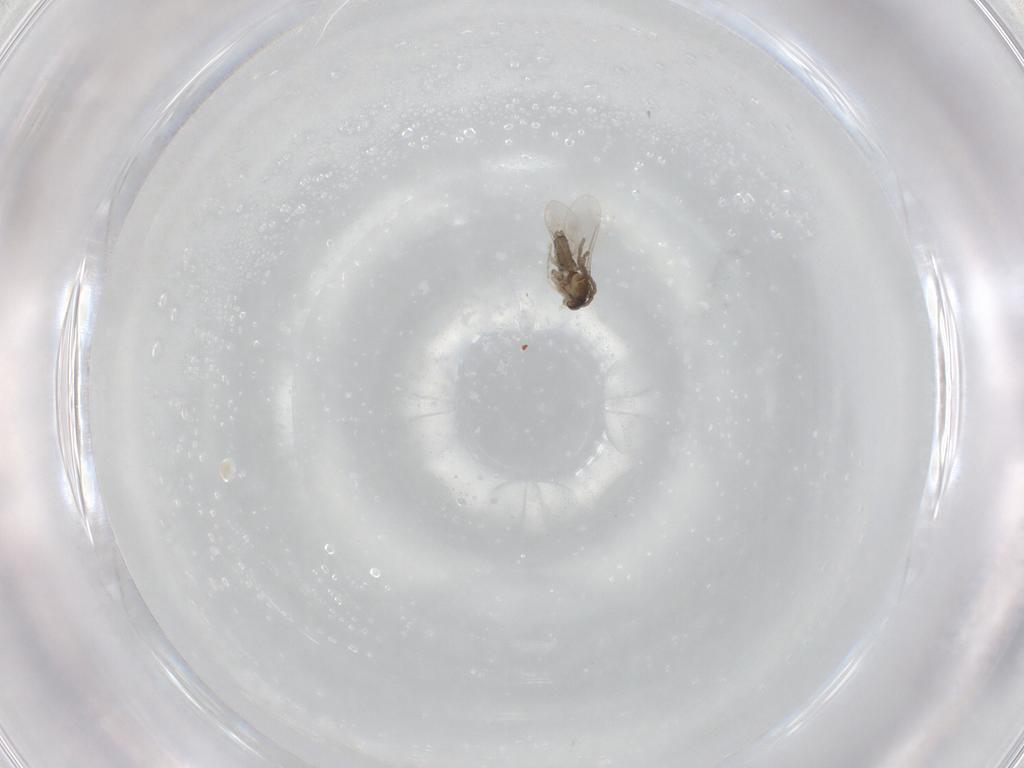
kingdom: Animalia
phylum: Arthropoda
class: Insecta
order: Diptera
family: Cecidomyiidae
